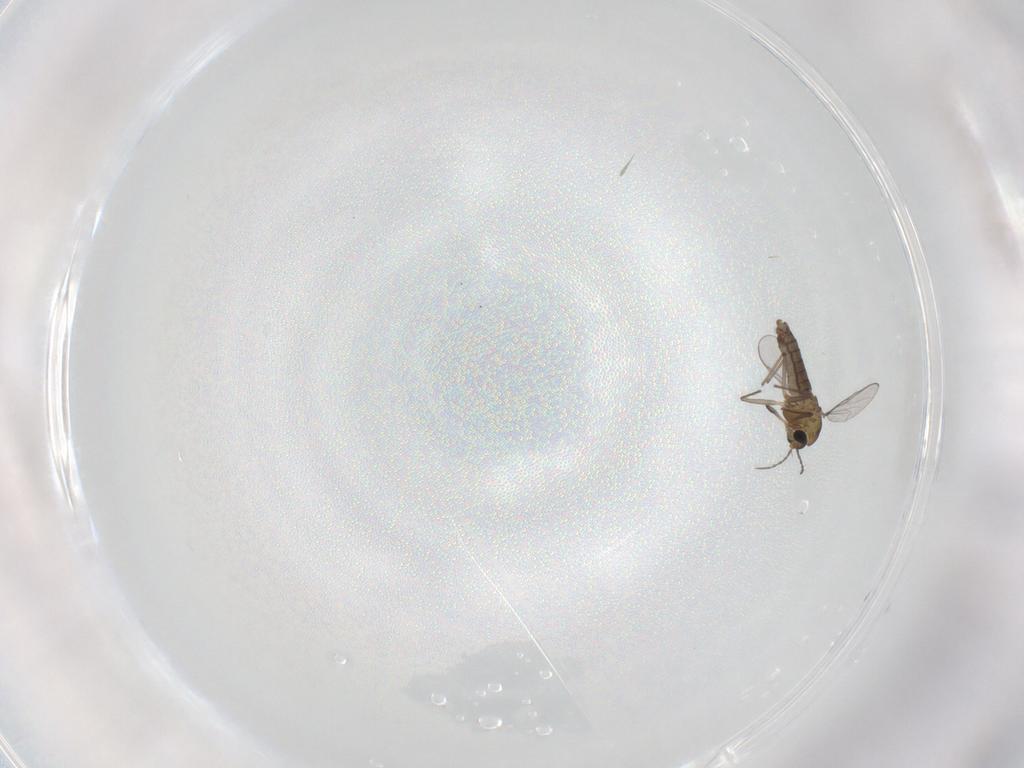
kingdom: Animalia
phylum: Arthropoda
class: Insecta
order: Diptera
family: Chironomidae
